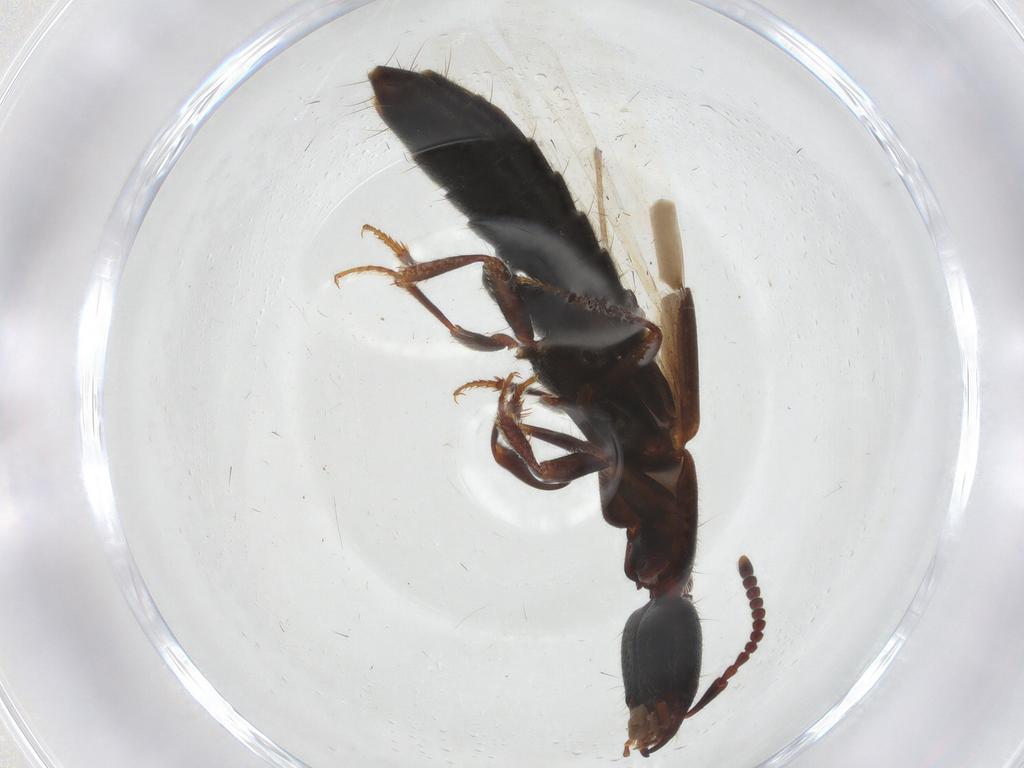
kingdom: Animalia
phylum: Arthropoda
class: Insecta
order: Coleoptera
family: Staphylinidae
